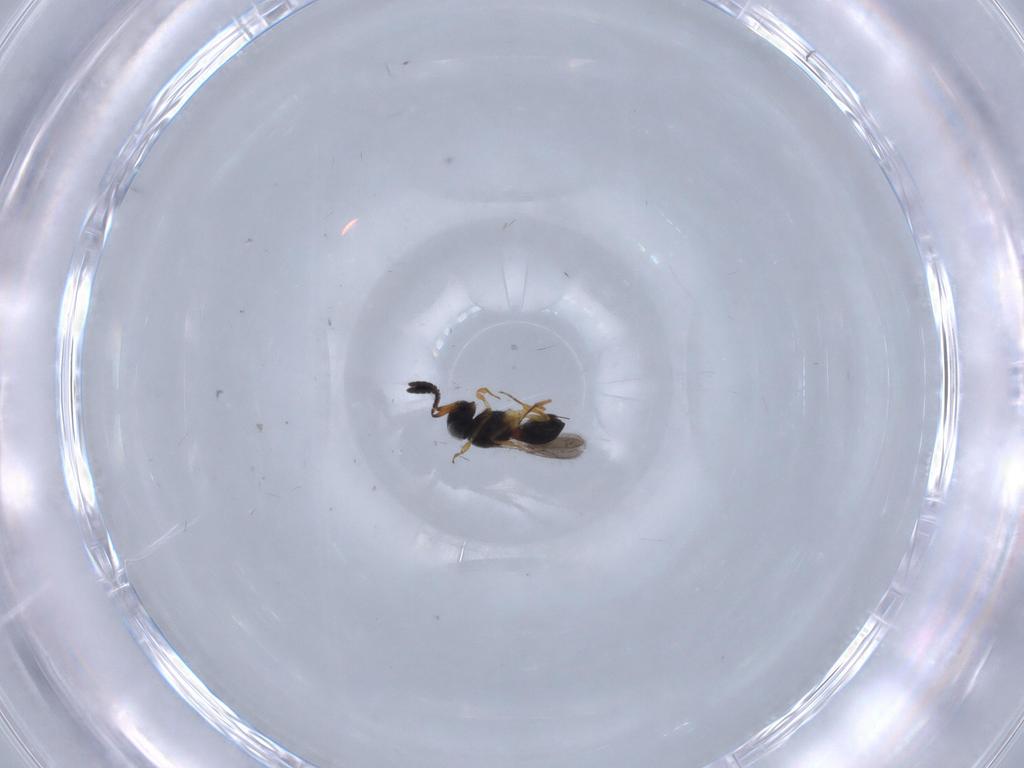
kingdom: Animalia
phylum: Arthropoda
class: Insecta
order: Hymenoptera
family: Scelionidae
